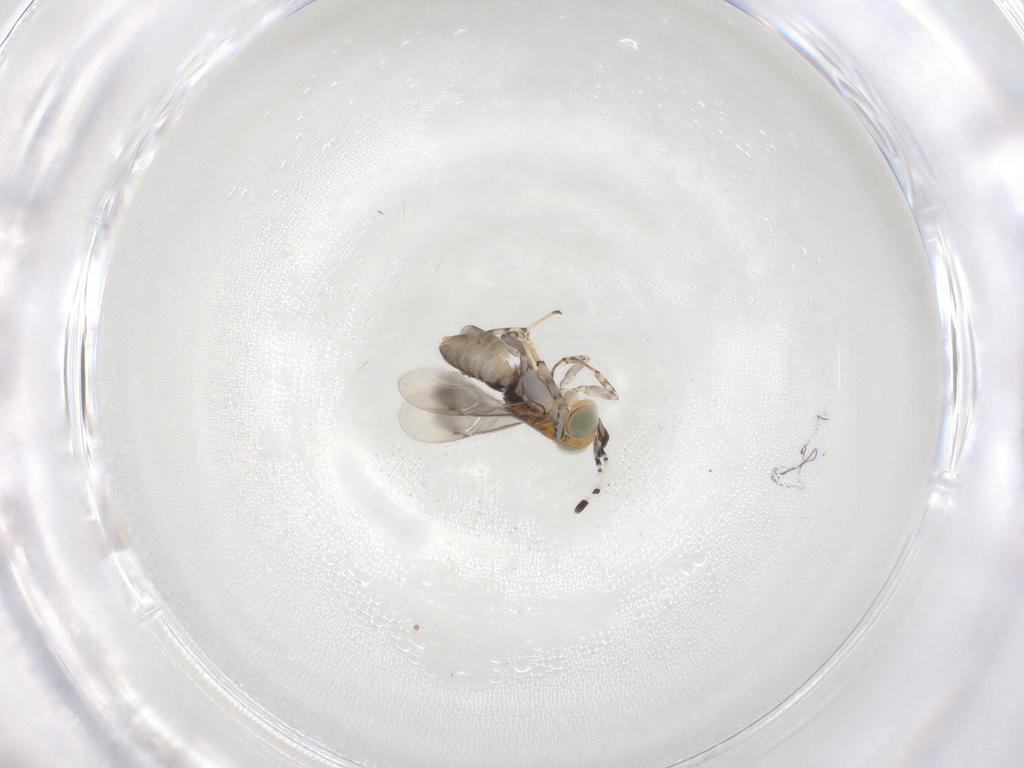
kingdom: Animalia
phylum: Arthropoda
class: Insecta
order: Hymenoptera
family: Encyrtidae
